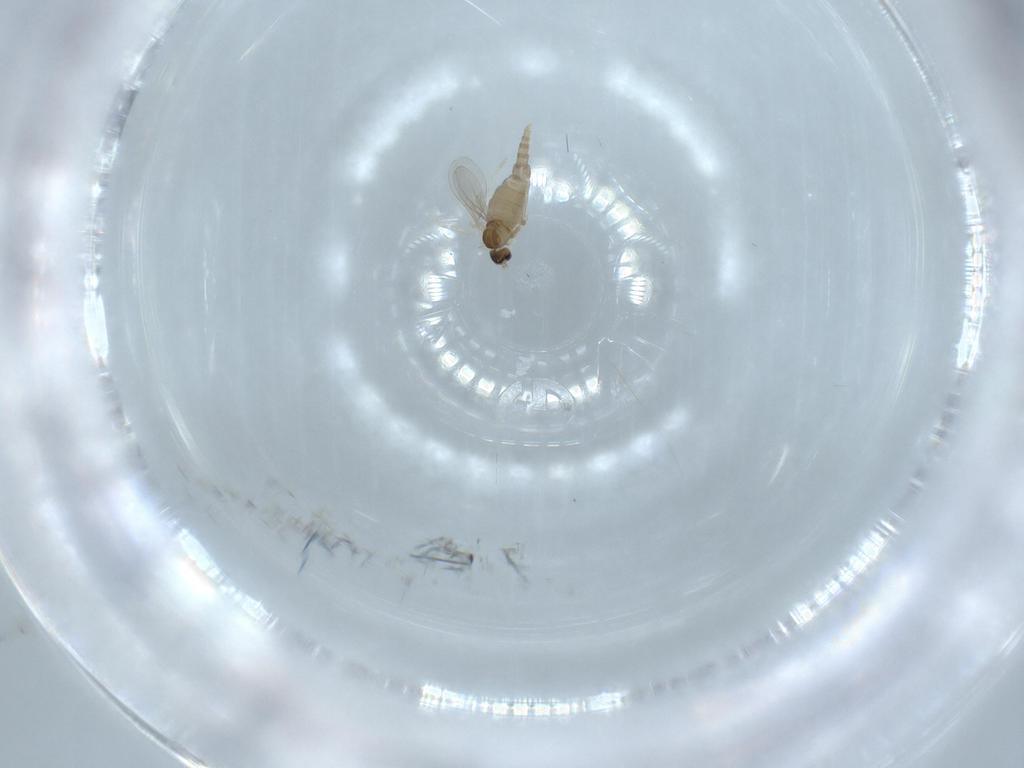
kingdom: Animalia
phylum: Arthropoda
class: Insecta
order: Diptera
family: Cecidomyiidae
